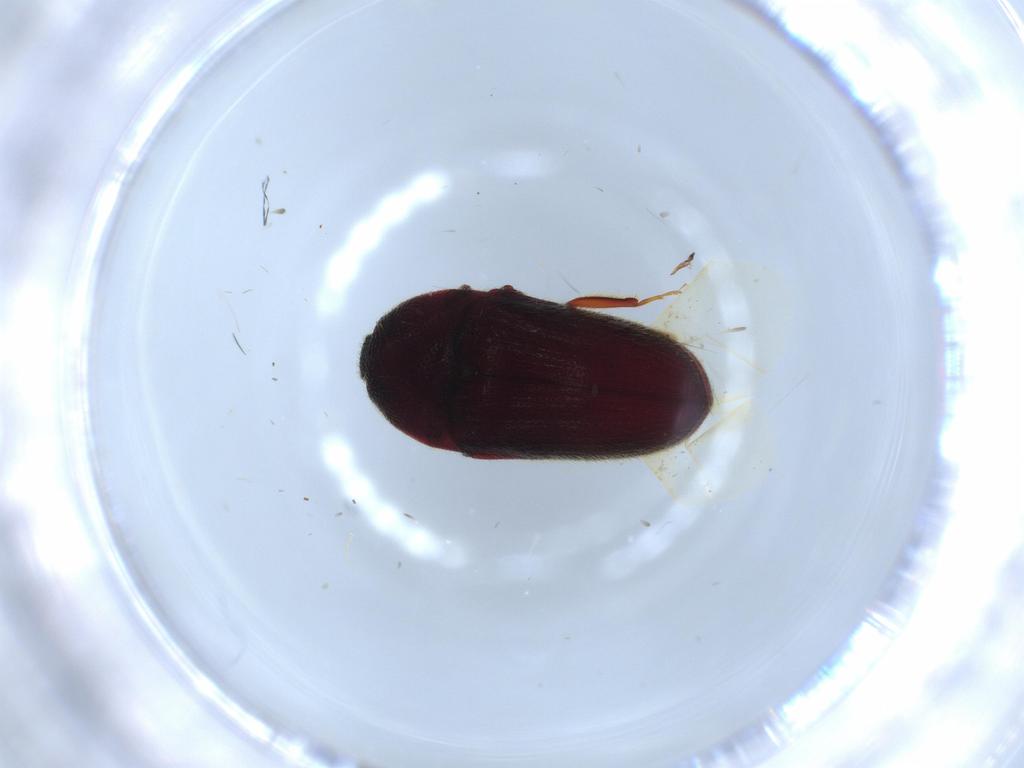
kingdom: Animalia
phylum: Arthropoda
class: Insecta
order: Coleoptera
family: Throscidae
